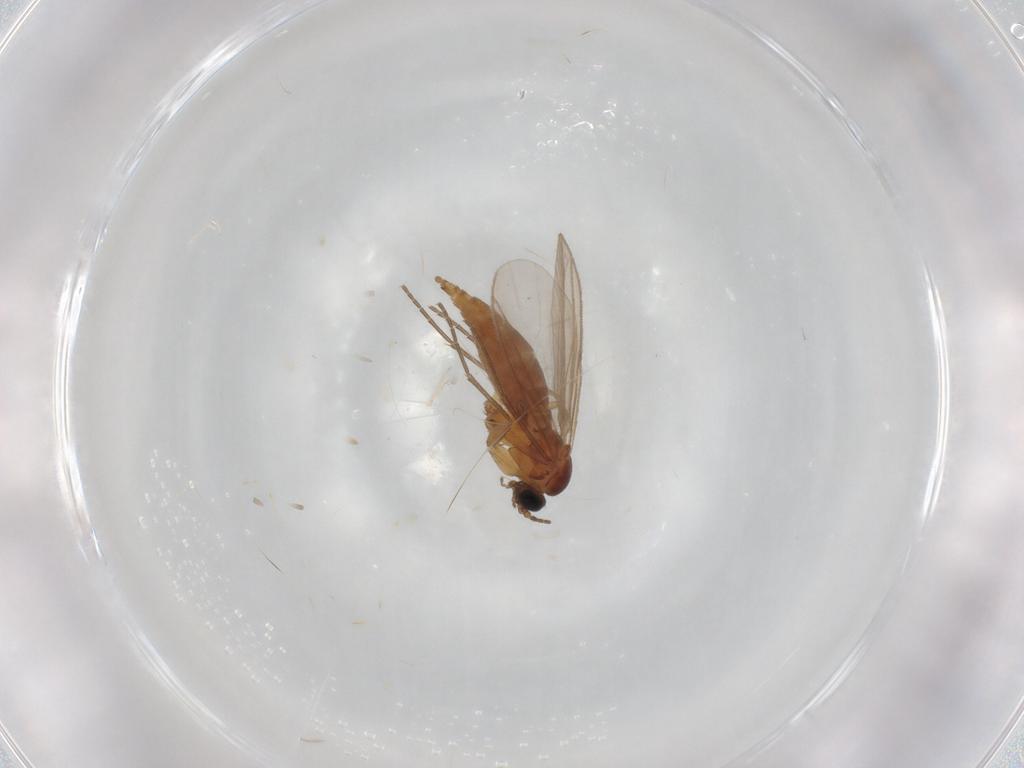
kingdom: Animalia
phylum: Arthropoda
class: Insecta
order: Diptera
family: Sciaridae
